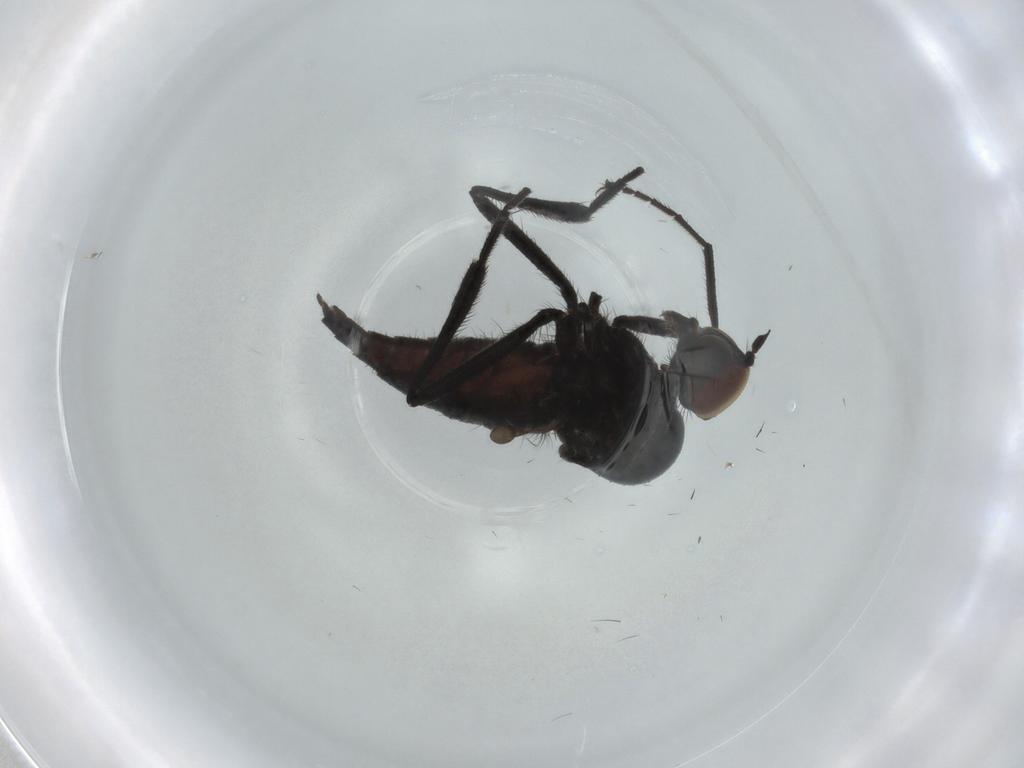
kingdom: Animalia
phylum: Arthropoda
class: Insecta
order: Diptera
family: Hybotidae
